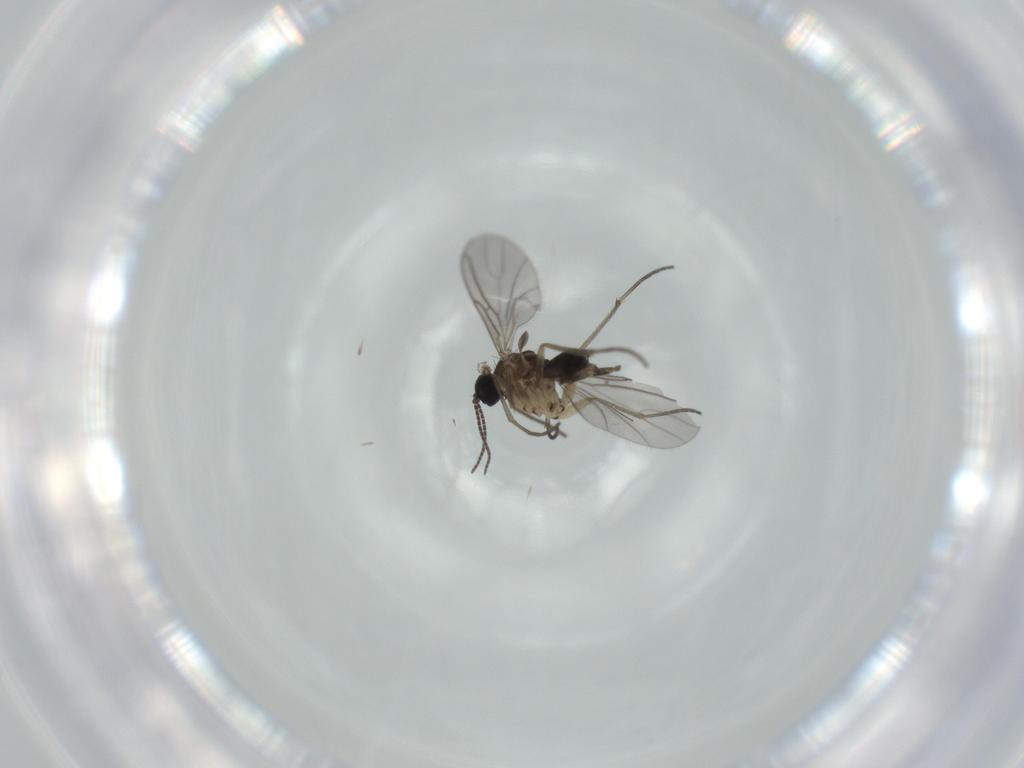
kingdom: Animalia
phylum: Arthropoda
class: Insecta
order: Diptera
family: Sciaridae
